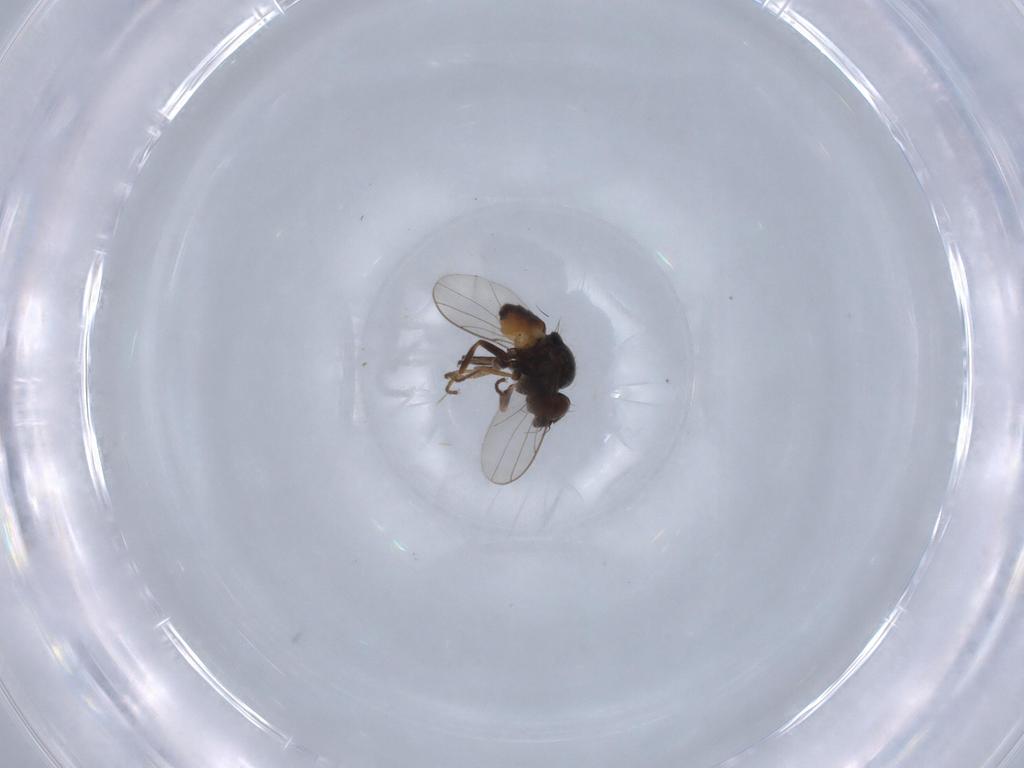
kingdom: Animalia
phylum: Arthropoda
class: Insecta
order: Diptera
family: Chloropidae
